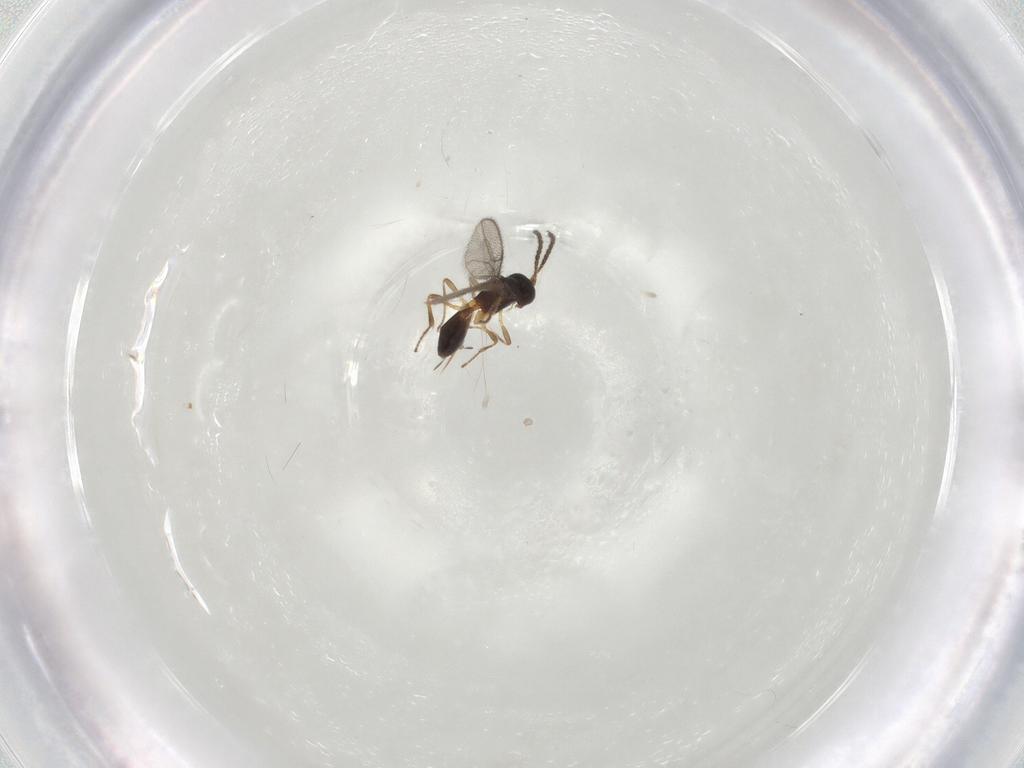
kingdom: Animalia
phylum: Arthropoda
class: Insecta
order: Hymenoptera
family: Braconidae
